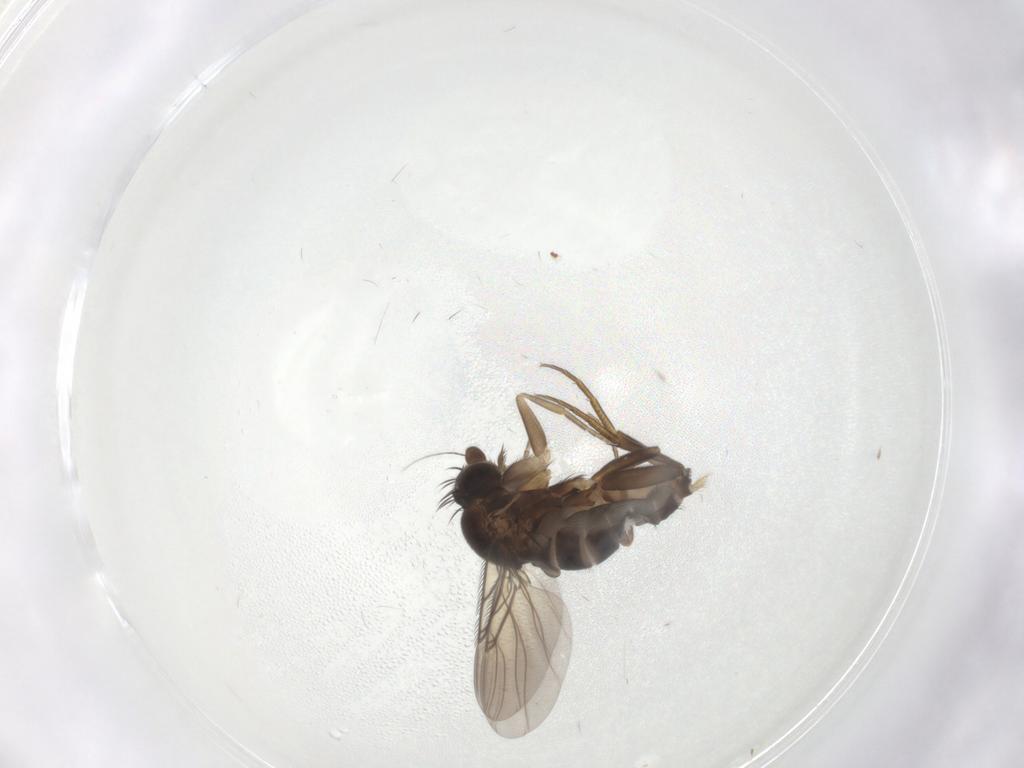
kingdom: Animalia
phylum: Arthropoda
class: Insecta
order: Diptera
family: Phoridae
